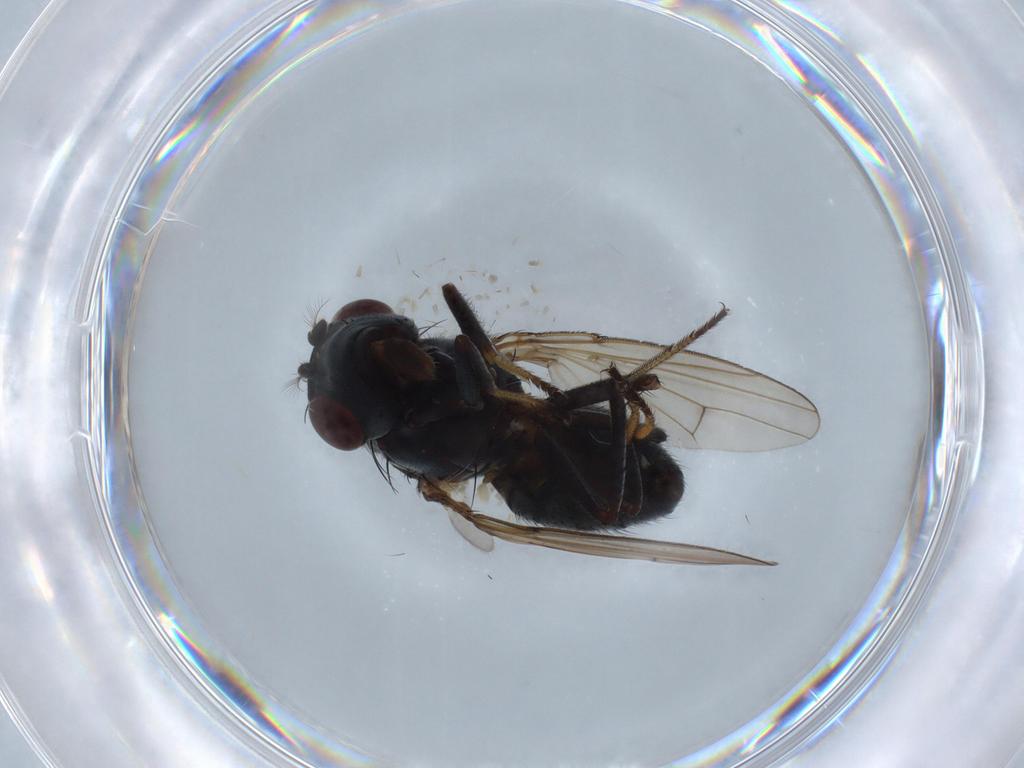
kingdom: Animalia
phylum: Arthropoda
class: Insecta
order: Diptera
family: Ephydridae
